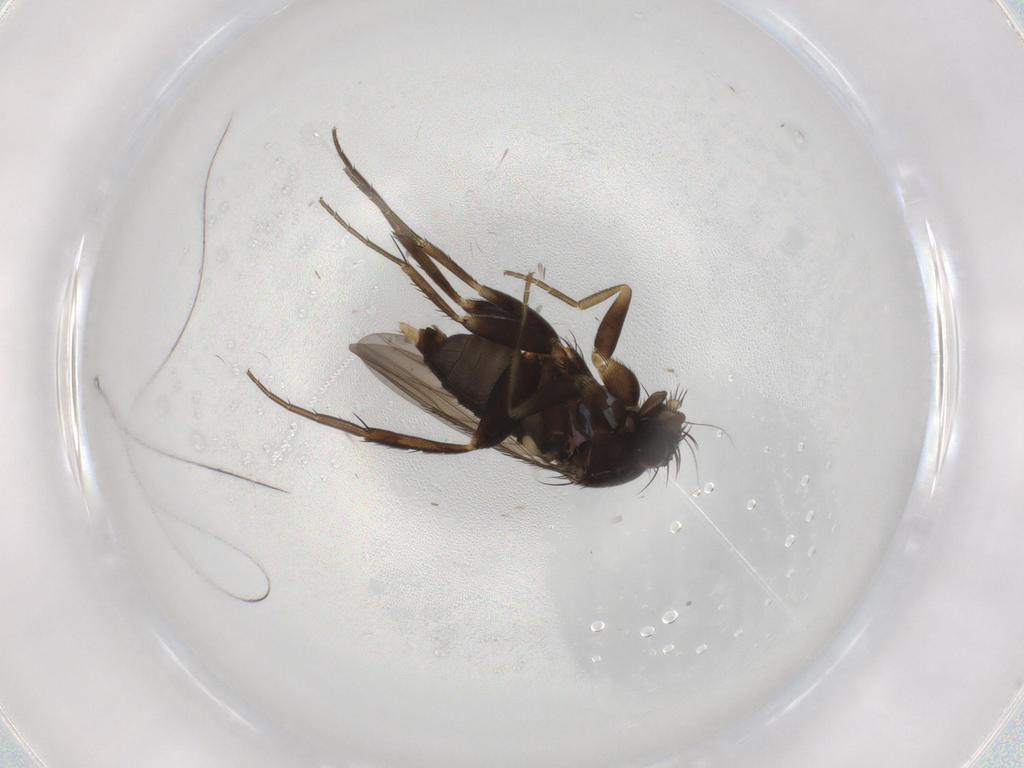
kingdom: Animalia
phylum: Arthropoda
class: Insecta
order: Diptera
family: Phoridae
